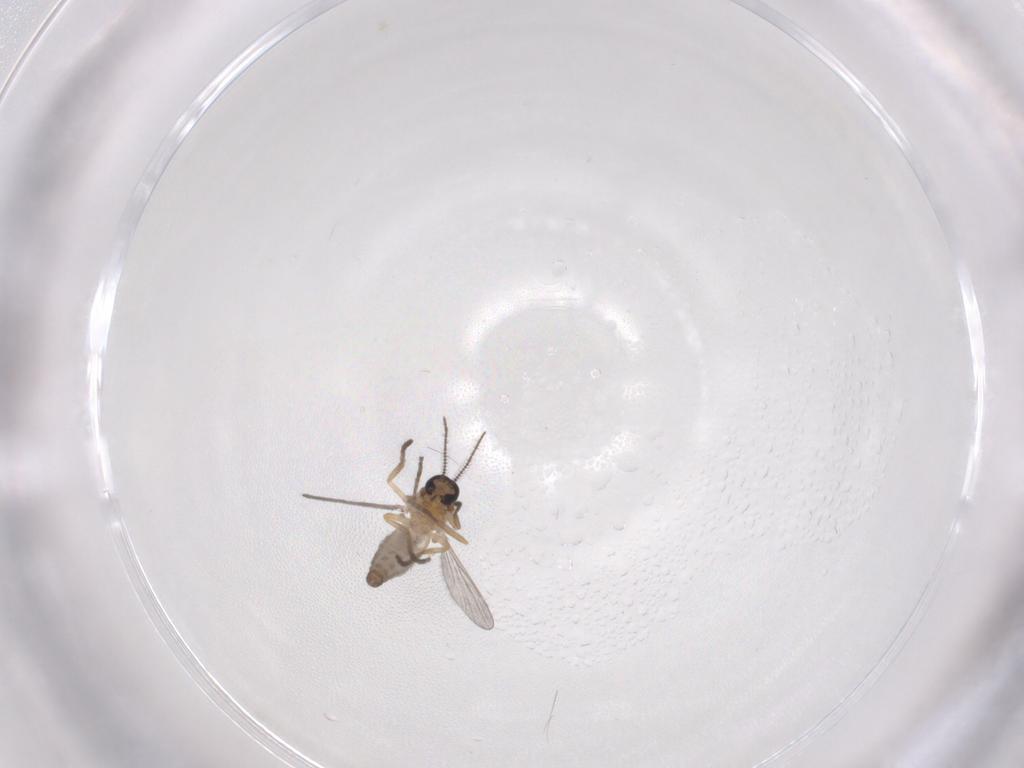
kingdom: Animalia
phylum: Arthropoda
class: Insecta
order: Diptera
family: Ceratopogonidae
